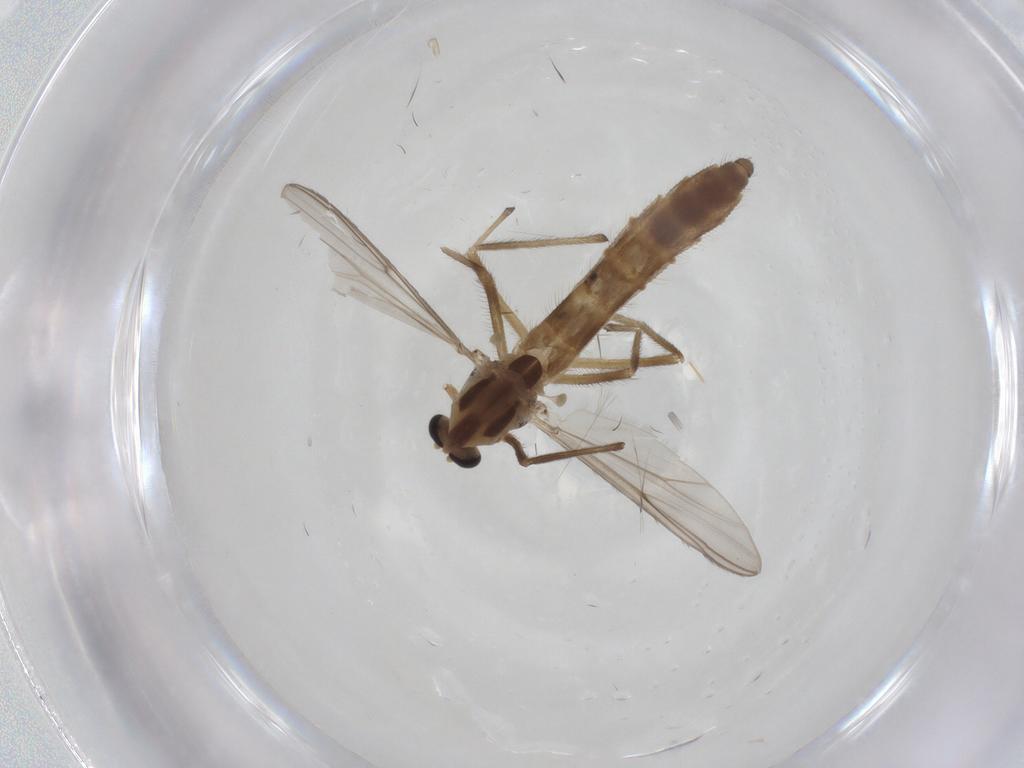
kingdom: Animalia
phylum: Arthropoda
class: Insecta
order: Diptera
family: Chironomidae
